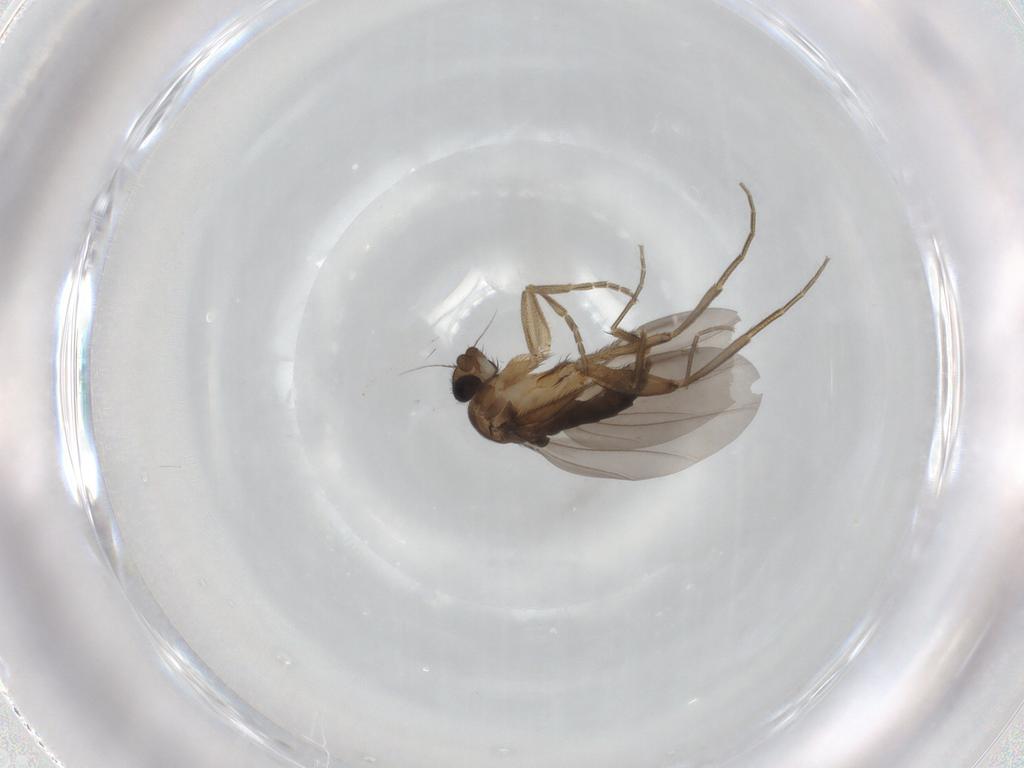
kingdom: Animalia
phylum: Arthropoda
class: Insecta
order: Diptera
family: Phoridae
